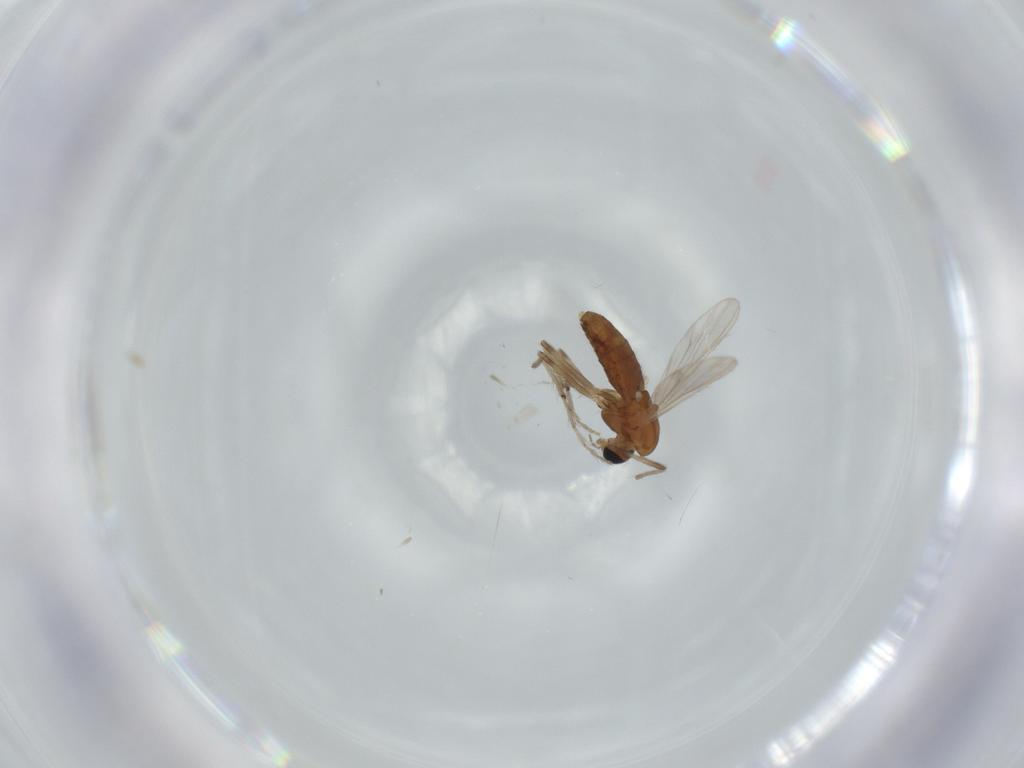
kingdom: Animalia
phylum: Arthropoda
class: Insecta
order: Diptera
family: Chironomidae
